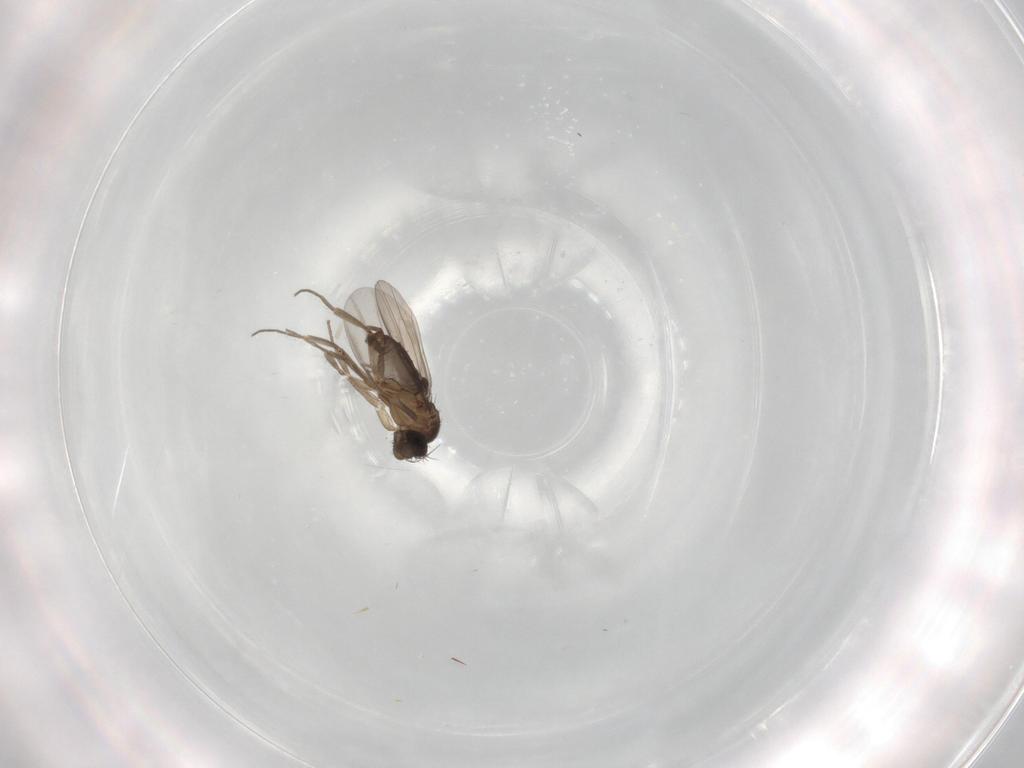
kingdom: Animalia
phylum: Arthropoda
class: Insecta
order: Diptera
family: Phoridae
